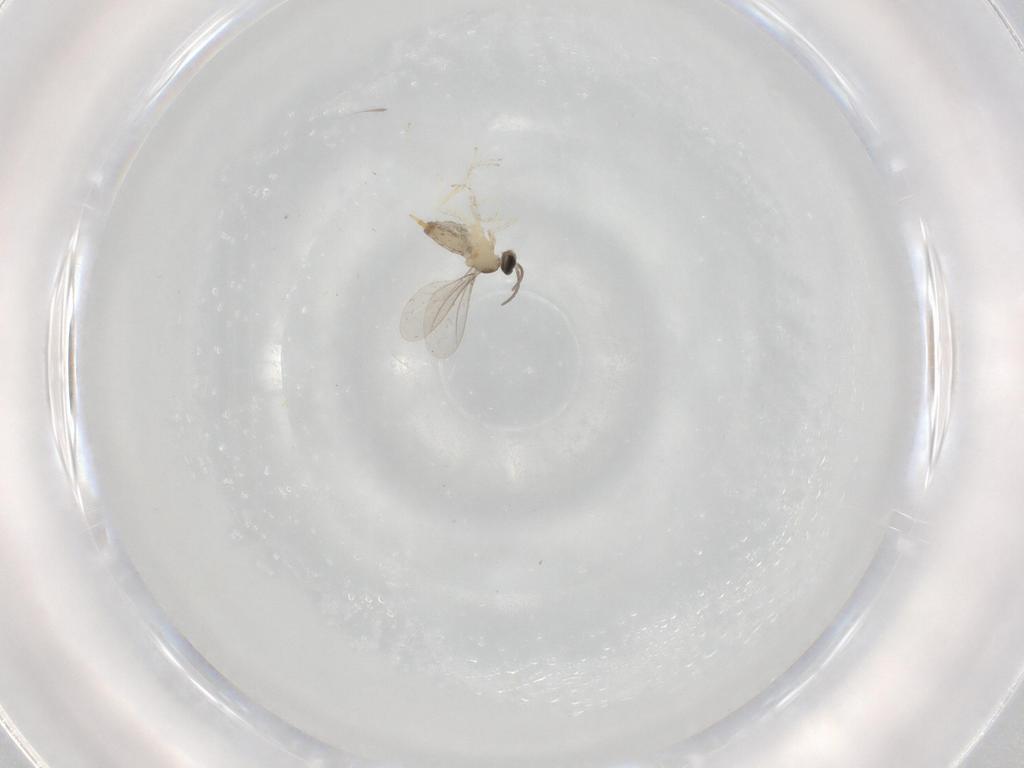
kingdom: Animalia
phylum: Arthropoda
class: Insecta
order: Diptera
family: Cecidomyiidae
